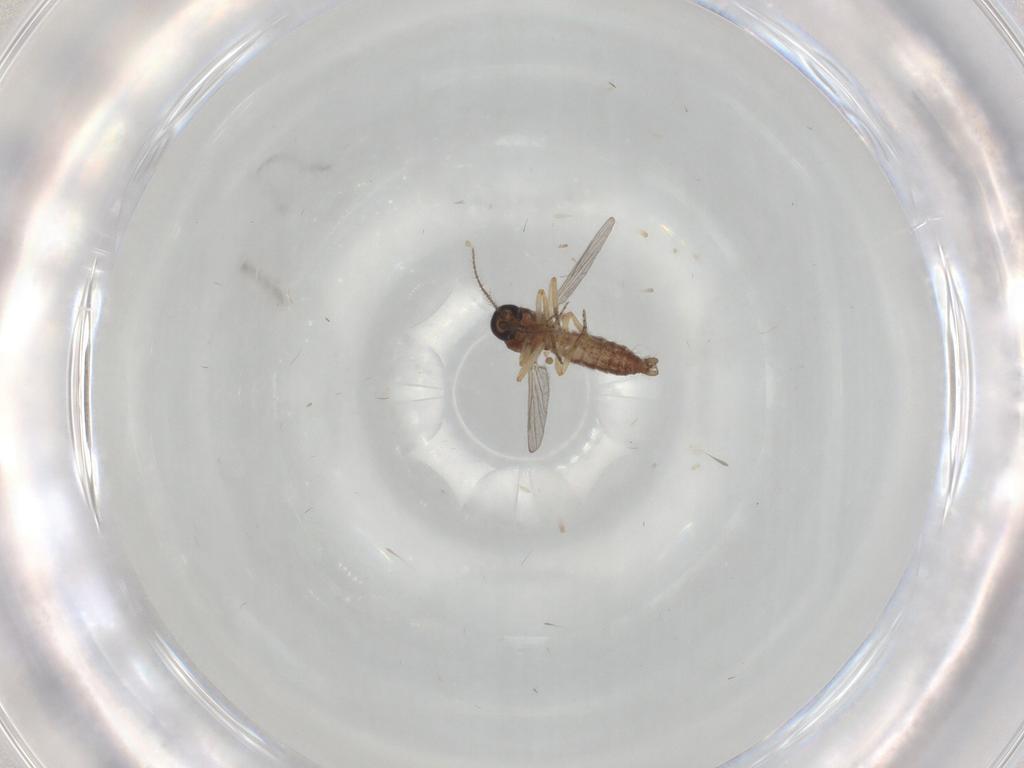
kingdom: Animalia
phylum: Arthropoda
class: Insecta
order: Diptera
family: Ceratopogonidae
